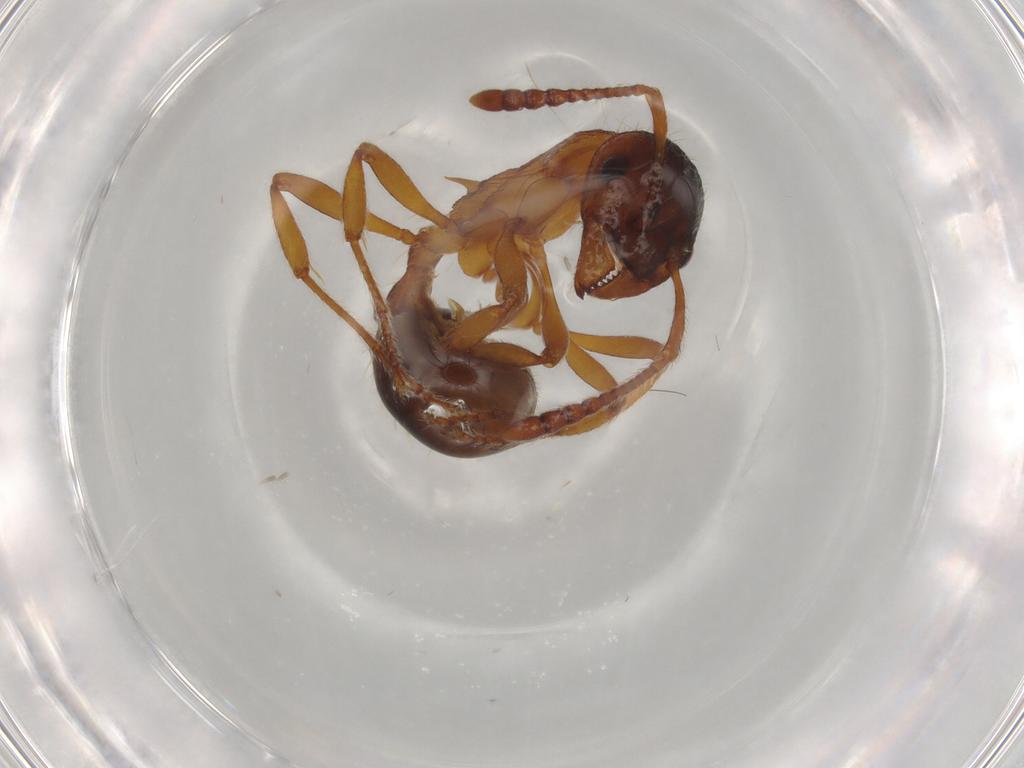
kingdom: Animalia
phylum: Arthropoda
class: Insecta
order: Hymenoptera
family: Formicidae
